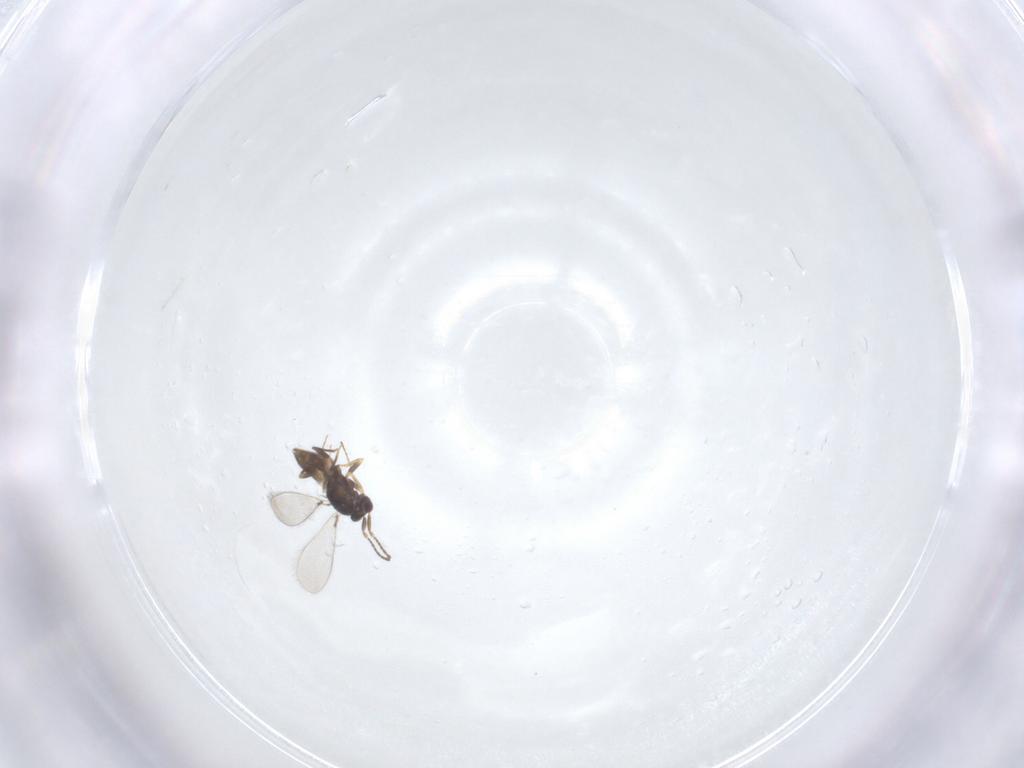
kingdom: Animalia
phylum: Arthropoda
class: Insecta
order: Hymenoptera
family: Mymaridae
